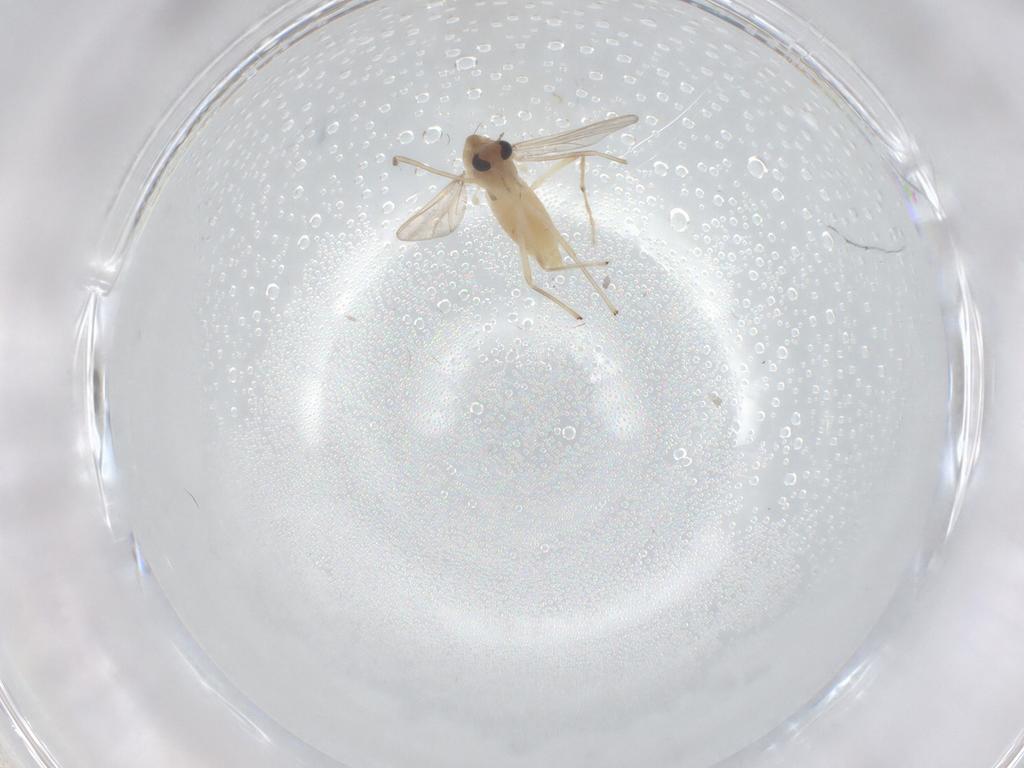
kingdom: Animalia
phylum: Arthropoda
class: Insecta
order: Diptera
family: Chironomidae
